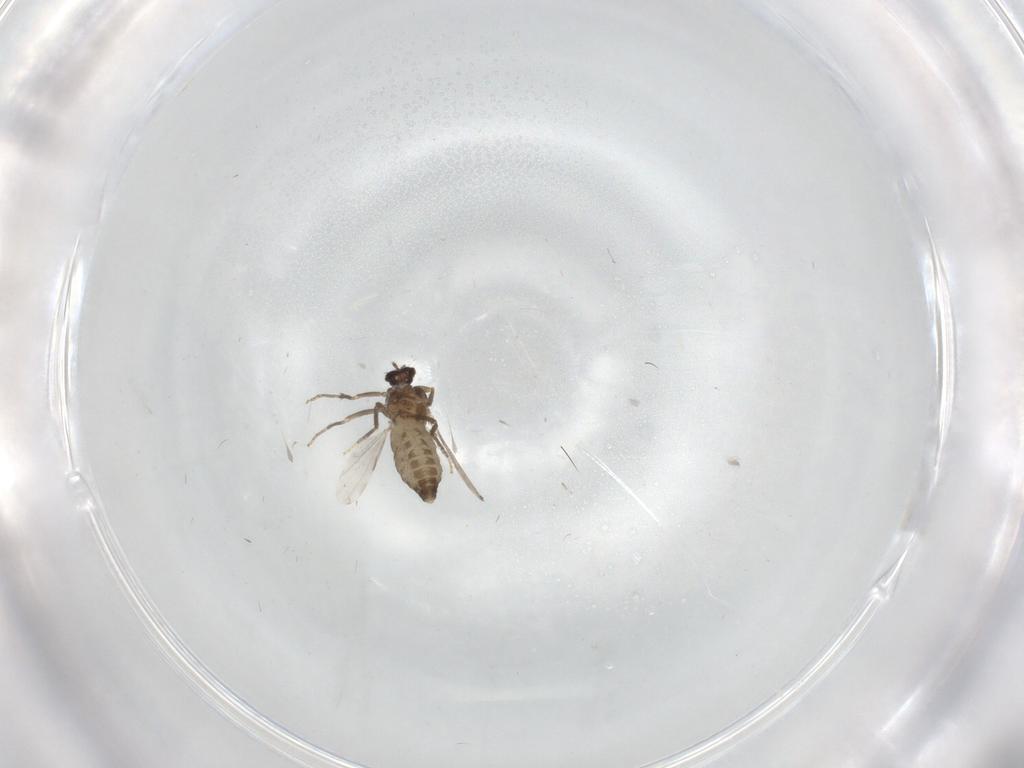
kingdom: Animalia
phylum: Arthropoda
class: Insecta
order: Diptera
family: Ceratopogonidae
